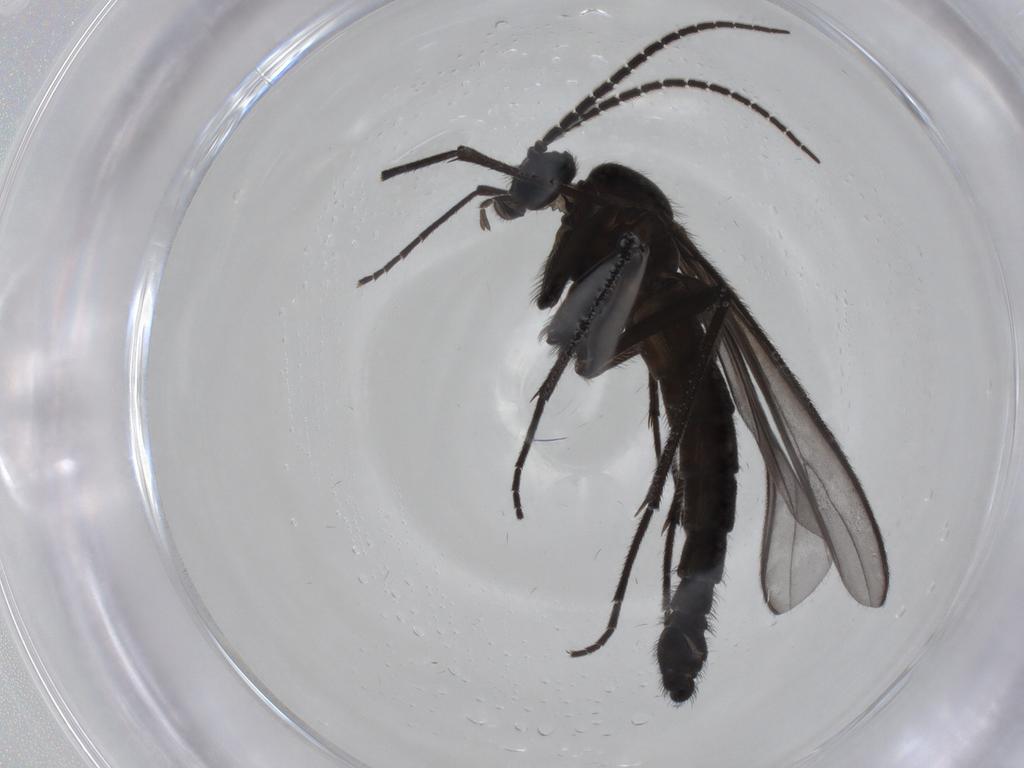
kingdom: Animalia
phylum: Arthropoda
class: Insecta
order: Diptera
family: Sciaridae
